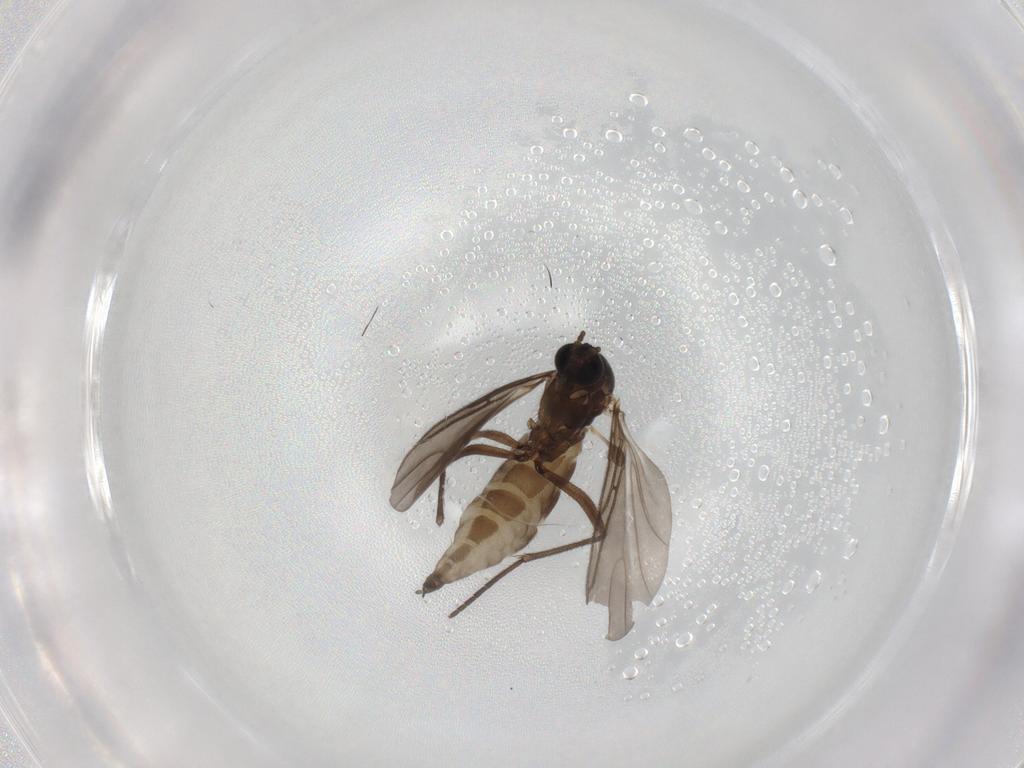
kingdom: Animalia
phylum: Arthropoda
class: Insecta
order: Diptera
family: Sciaridae
